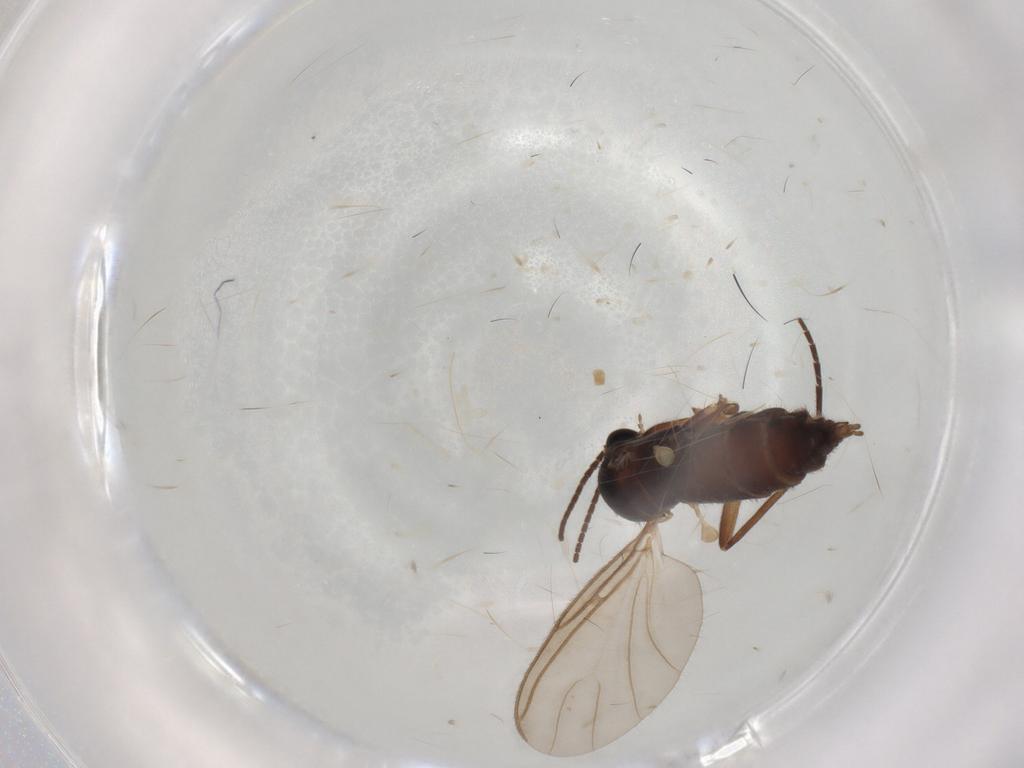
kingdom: Animalia
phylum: Arthropoda
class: Insecta
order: Diptera
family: Sciaridae
